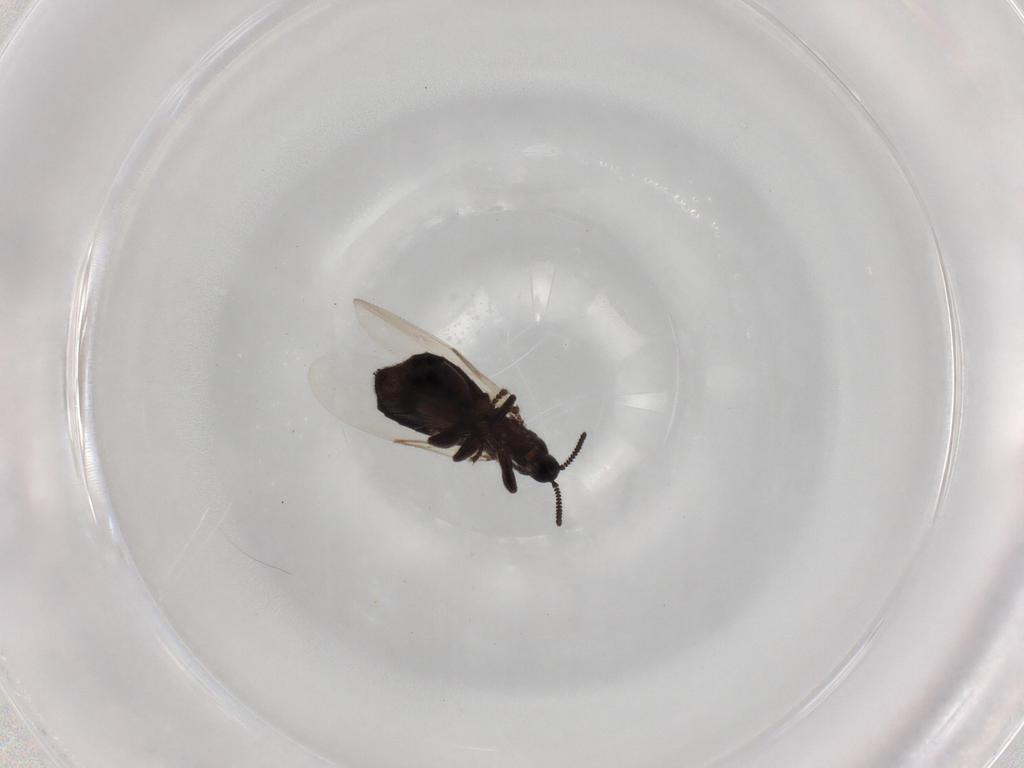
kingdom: Animalia
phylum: Arthropoda
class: Insecta
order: Diptera
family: Scatopsidae
